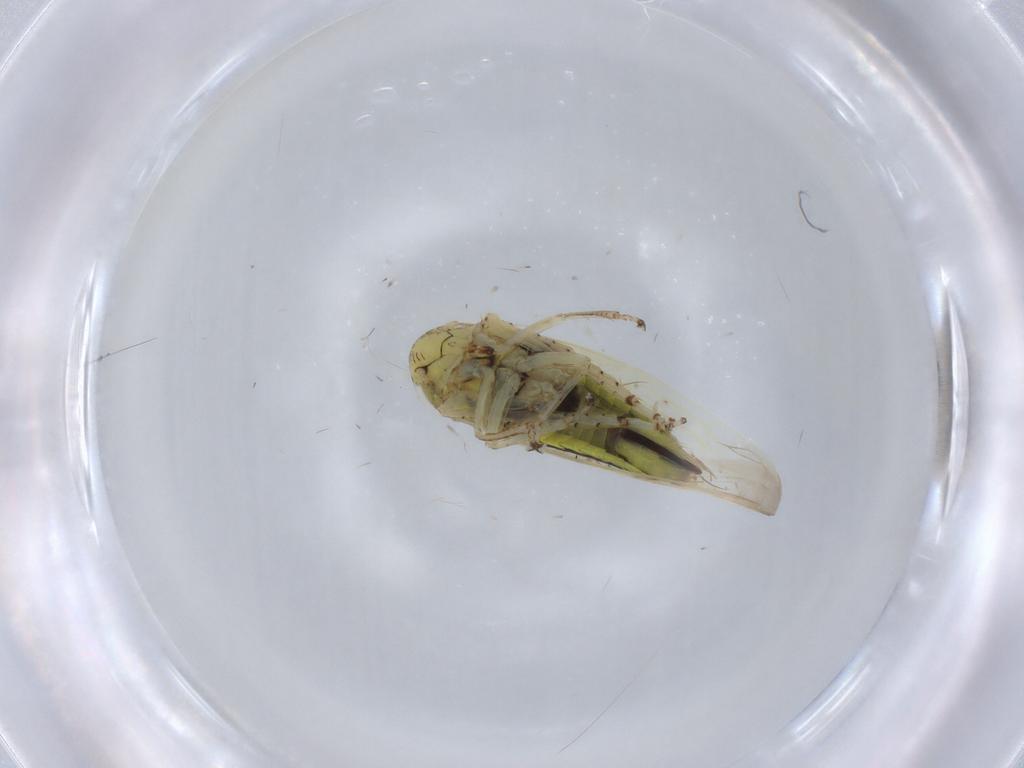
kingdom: Animalia
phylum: Arthropoda
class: Insecta
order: Hemiptera
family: Cicadellidae
